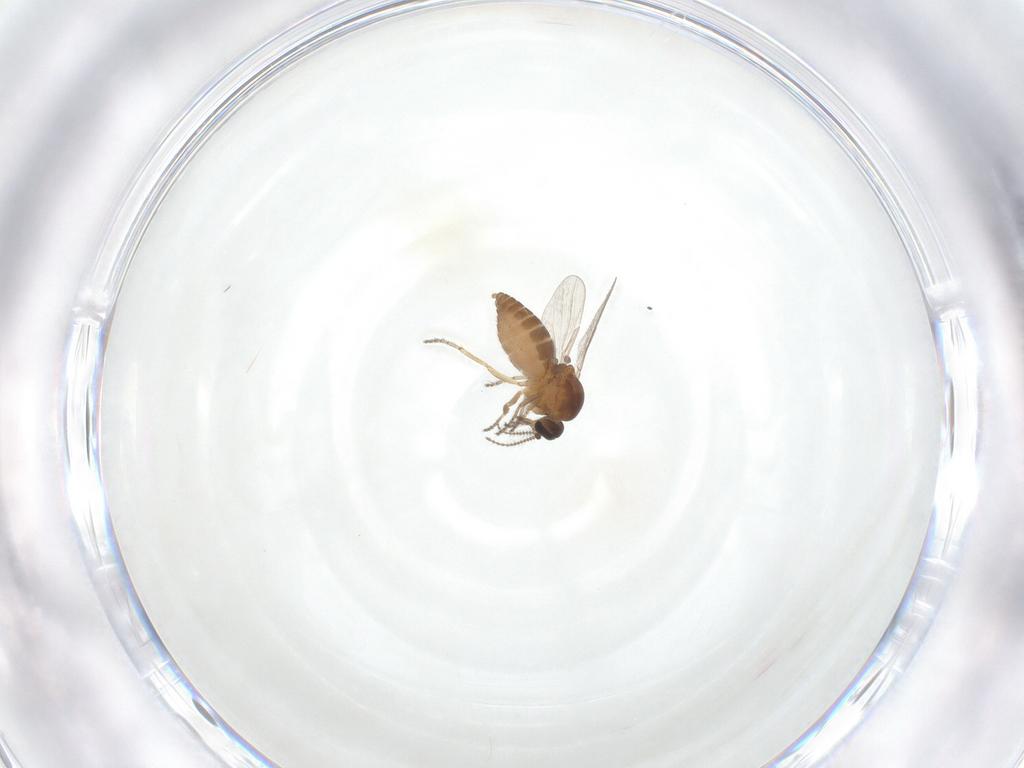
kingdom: Animalia
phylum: Arthropoda
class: Insecta
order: Diptera
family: Ceratopogonidae
